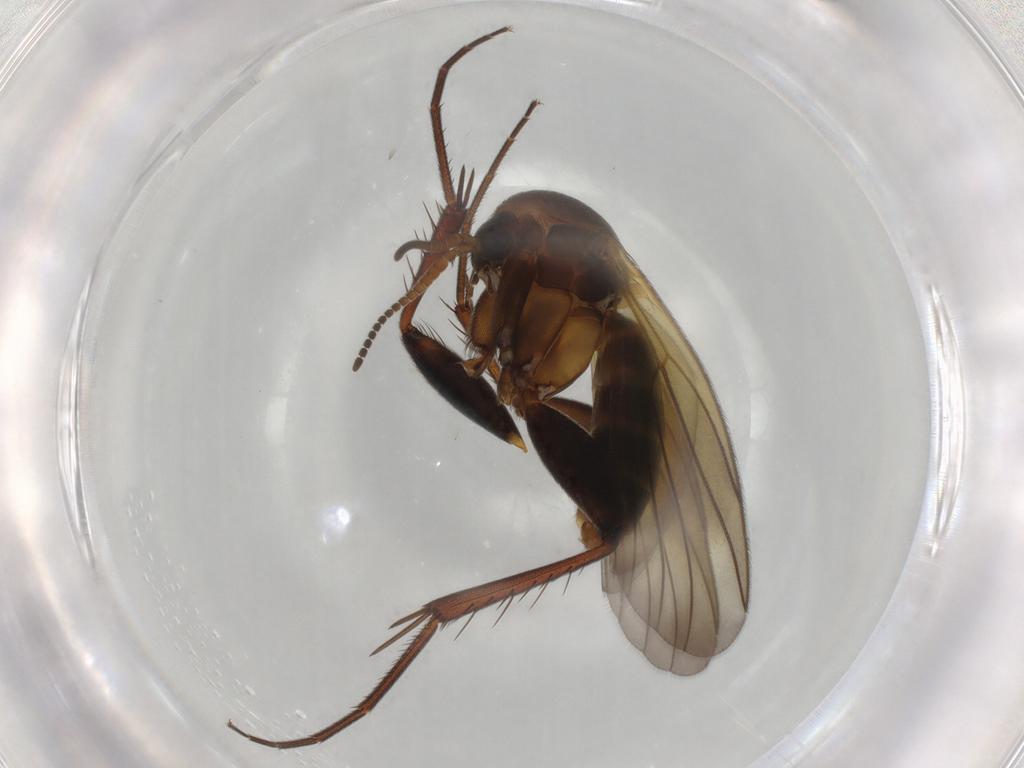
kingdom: Animalia
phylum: Arthropoda
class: Insecta
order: Diptera
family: Mycetophilidae
